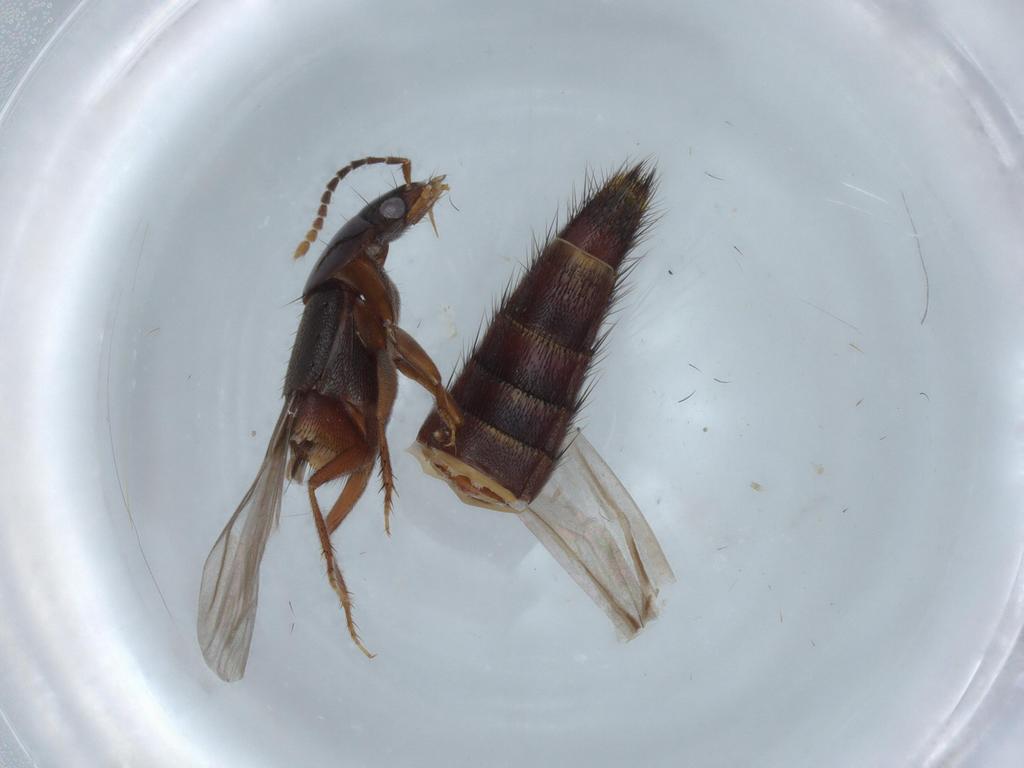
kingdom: Animalia
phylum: Arthropoda
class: Insecta
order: Coleoptera
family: Staphylinidae
